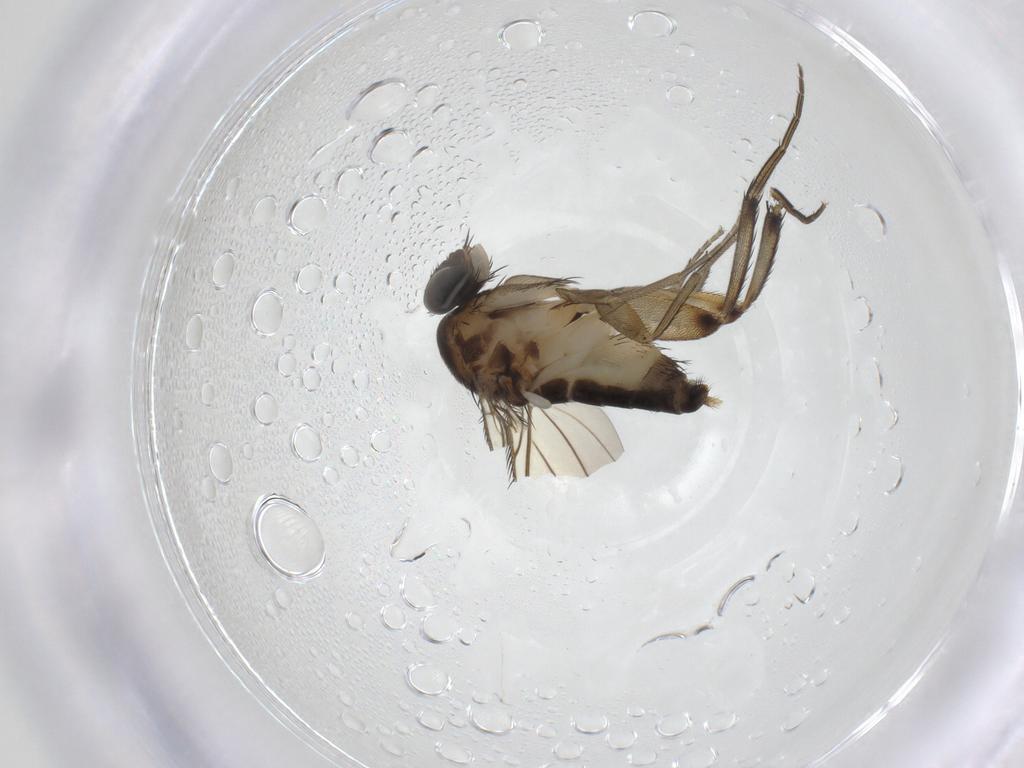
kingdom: Animalia
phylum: Arthropoda
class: Insecta
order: Diptera
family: Phoridae
